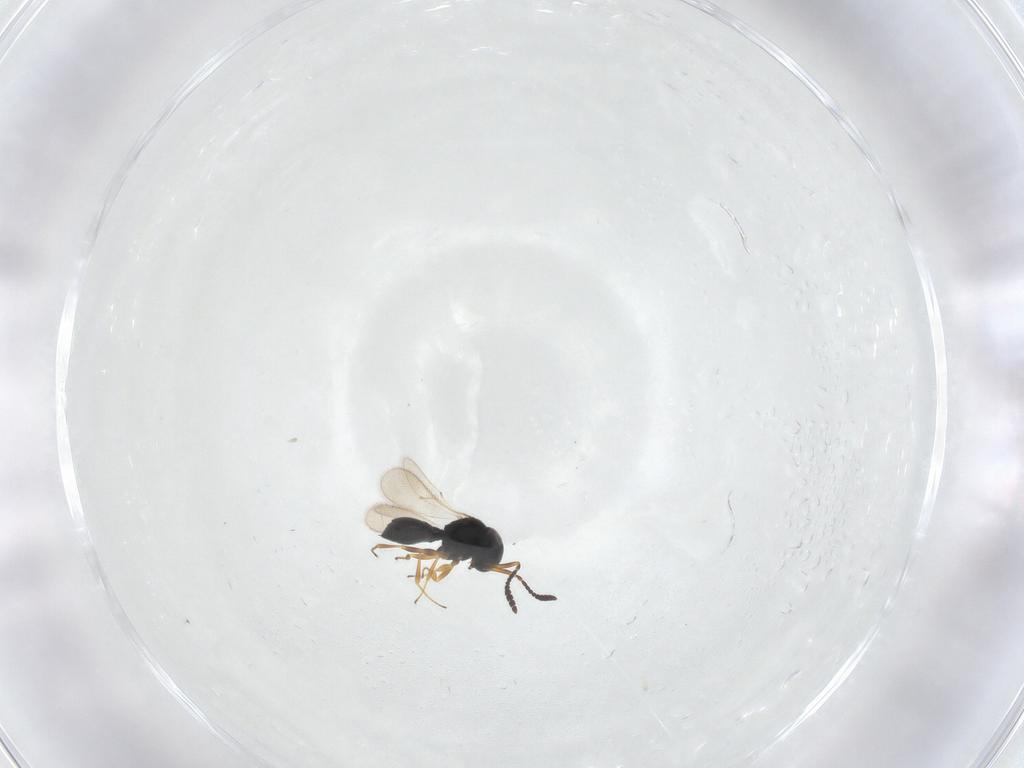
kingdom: Animalia
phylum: Arthropoda
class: Insecta
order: Hymenoptera
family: Scelionidae
